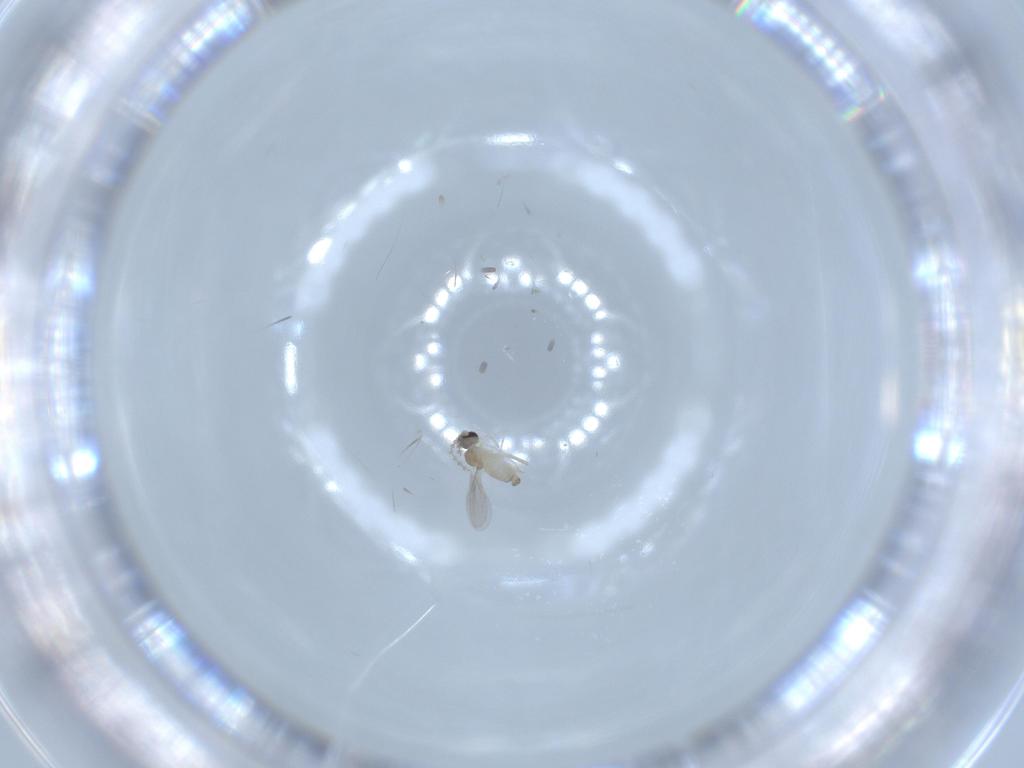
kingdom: Animalia
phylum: Arthropoda
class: Insecta
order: Diptera
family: Cecidomyiidae
